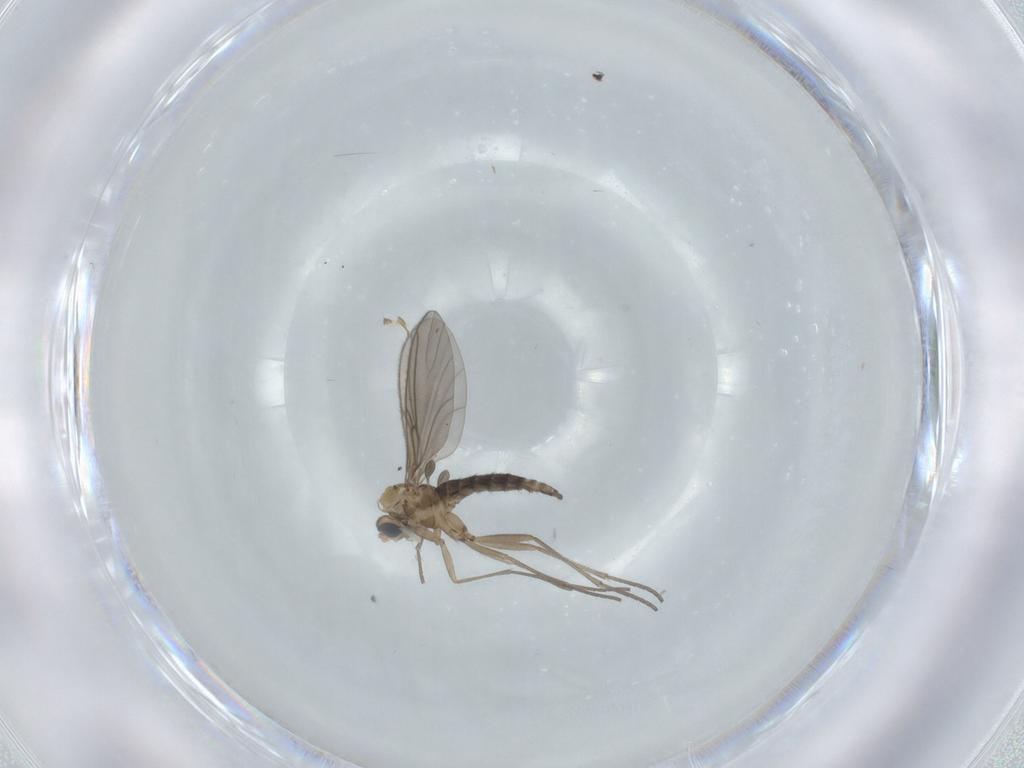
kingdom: Animalia
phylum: Arthropoda
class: Insecta
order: Diptera
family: Sciaridae
